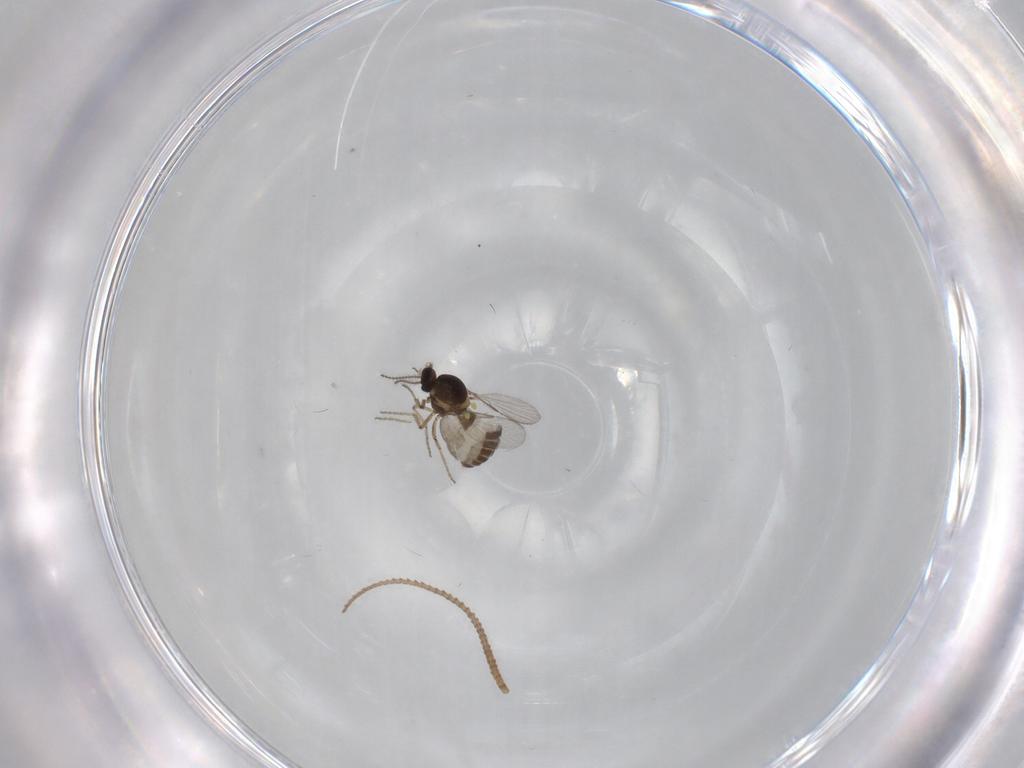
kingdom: Animalia
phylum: Arthropoda
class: Insecta
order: Diptera
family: Ceratopogonidae
